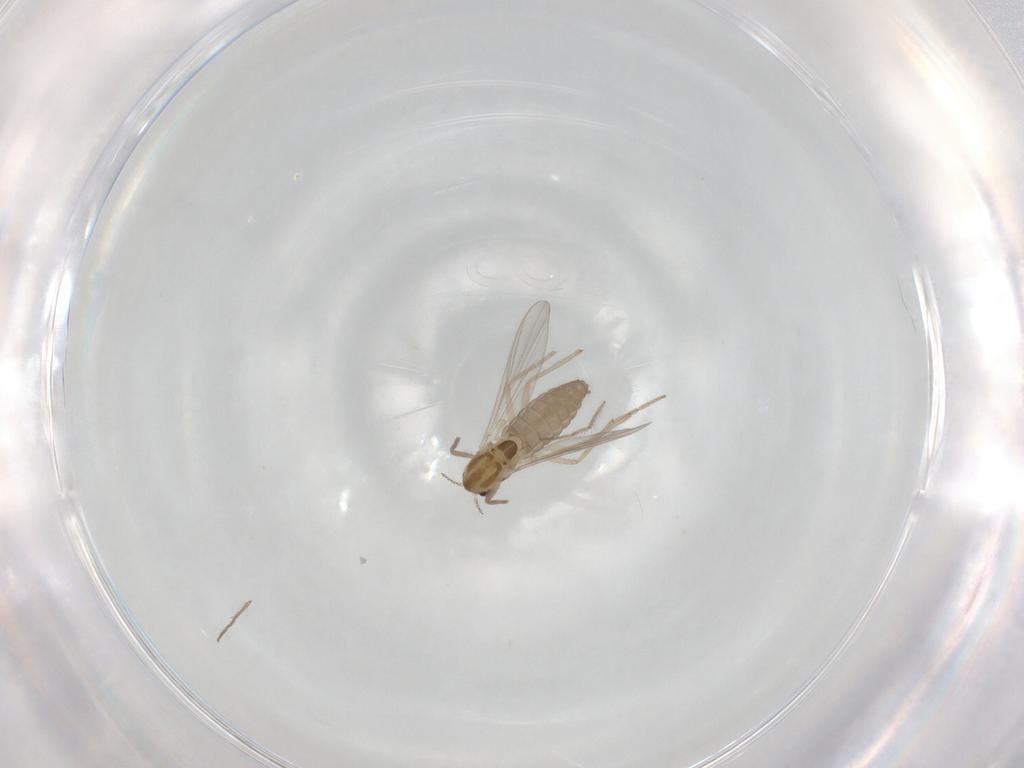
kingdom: Animalia
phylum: Arthropoda
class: Insecta
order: Diptera
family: Chironomidae
